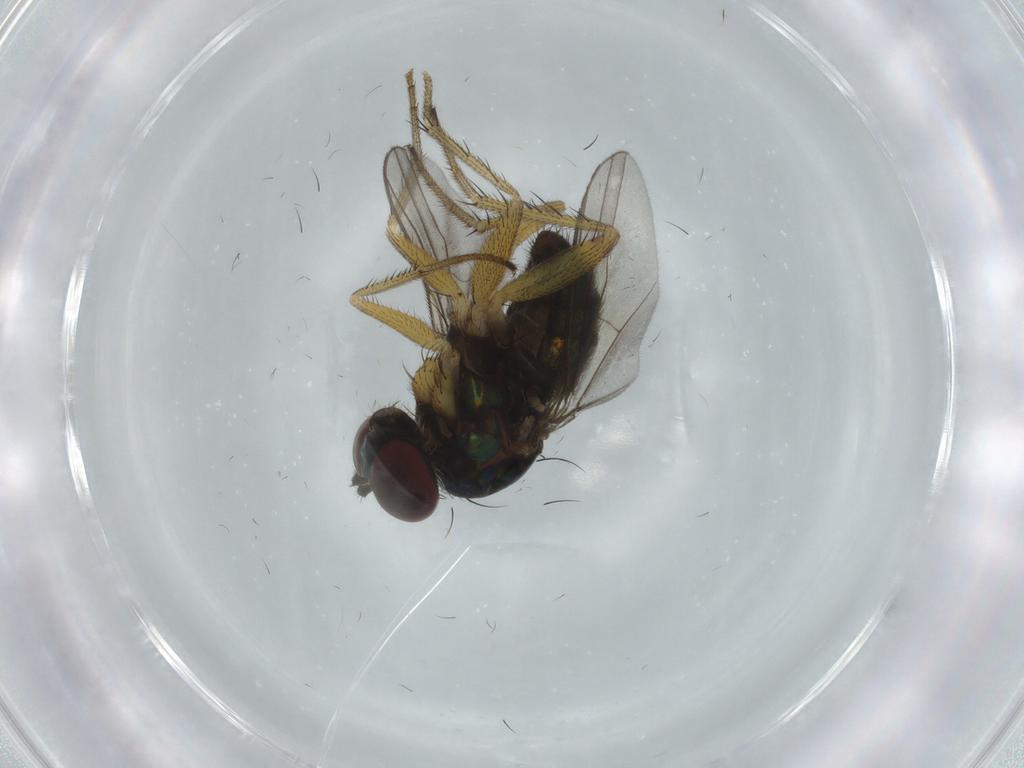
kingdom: Animalia
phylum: Arthropoda
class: Insecta
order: Diptera
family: Dolichopodidae
